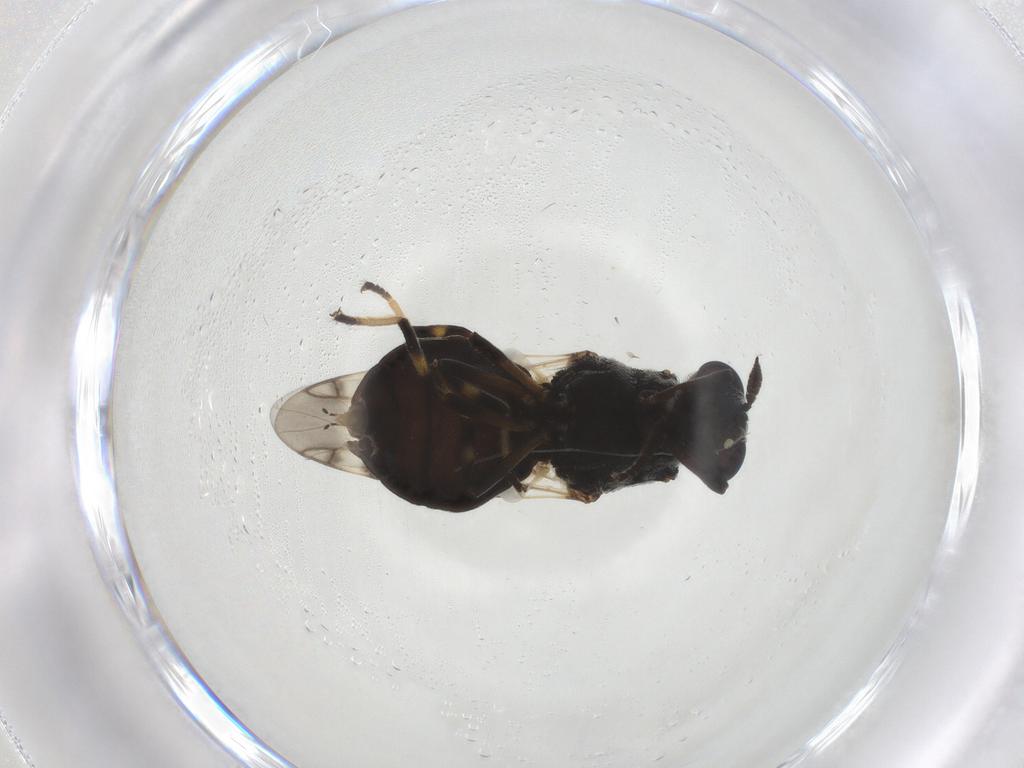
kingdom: Animalia
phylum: Arthropoda
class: Insecta
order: Diptera
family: Stratiomyidae
